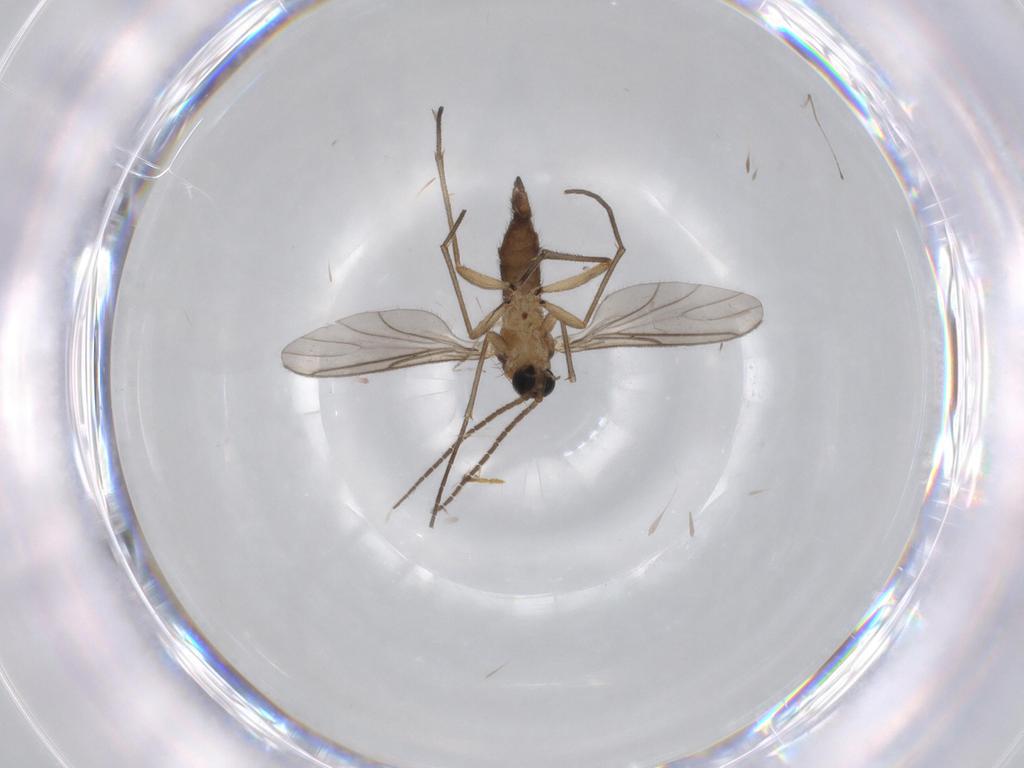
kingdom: Animalia
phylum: Arthropoda
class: Insecta
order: Diptera
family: Sciaridae
